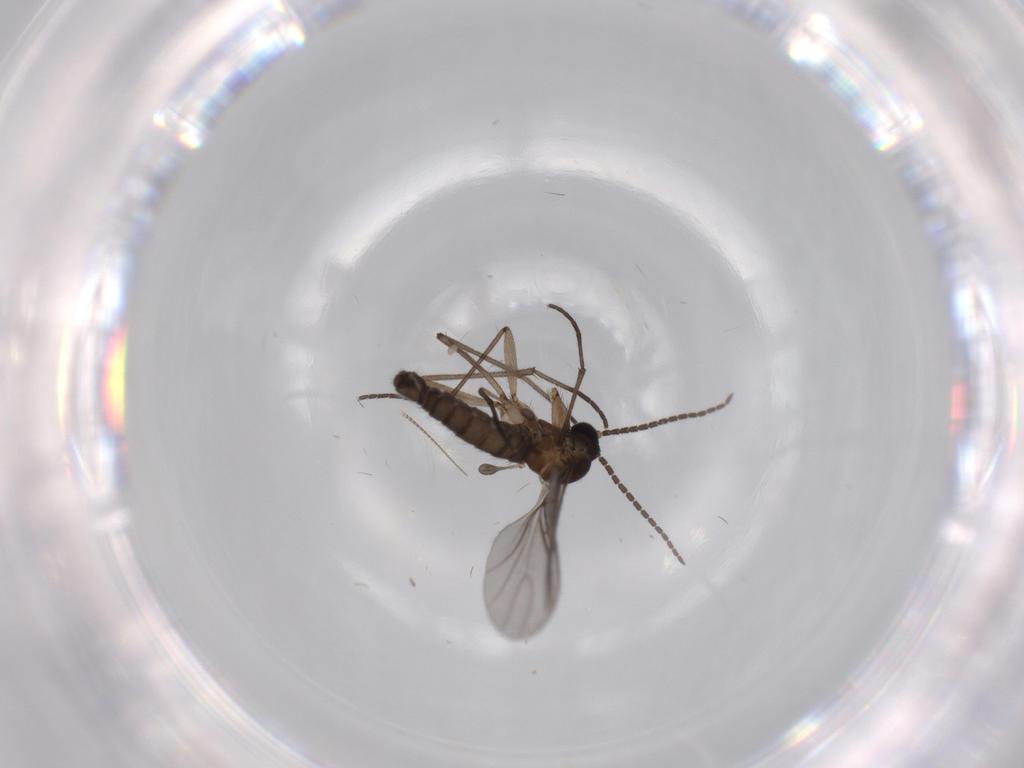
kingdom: Animalia
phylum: Arthropoda
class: Insecta
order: Diptera
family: Sciaridae
